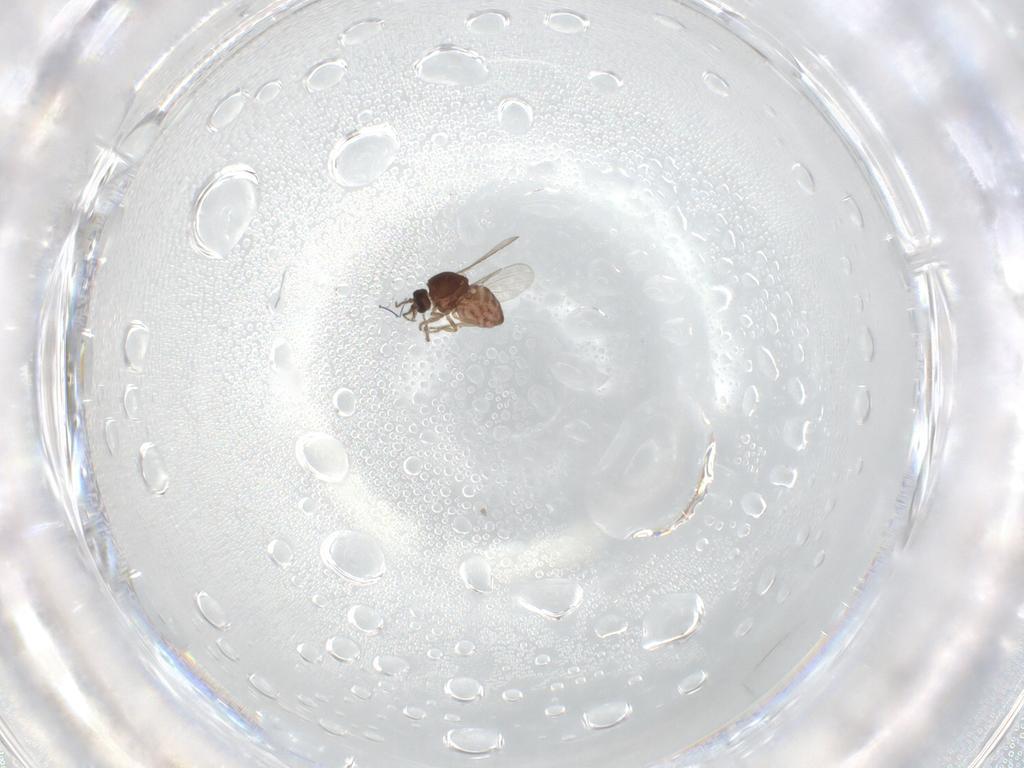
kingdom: Animalia
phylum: Arthropoda
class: Insecta
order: Diptera
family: Ceratopogonidae
